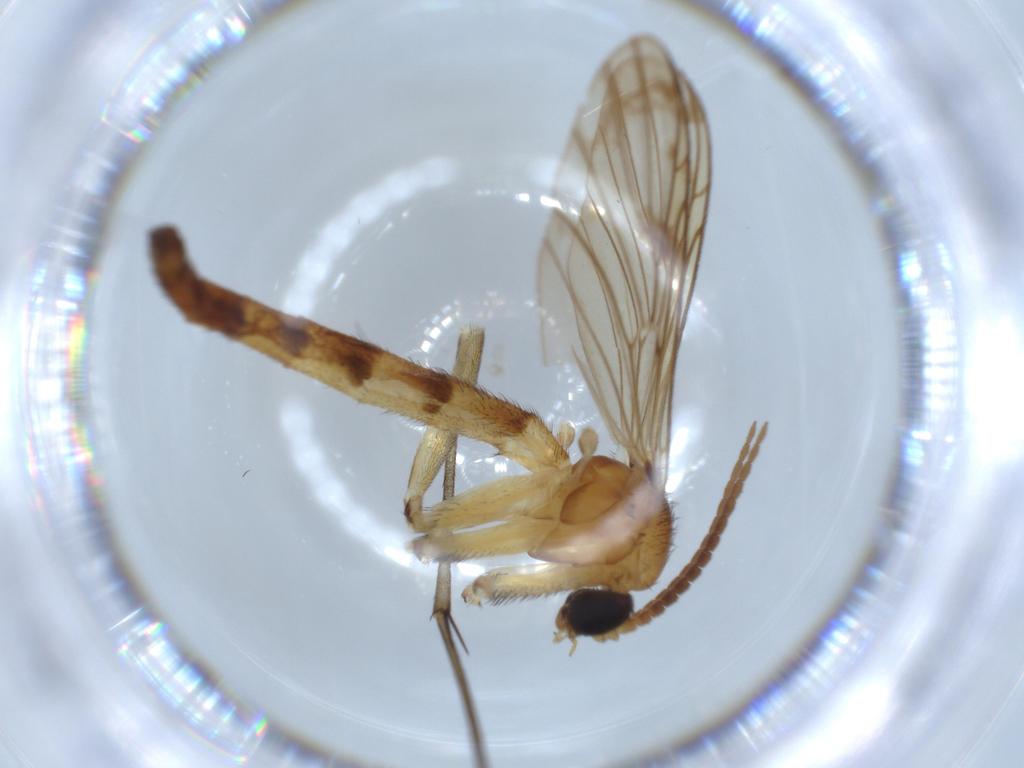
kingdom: Animalia
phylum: Arthropoda
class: Insecta
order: Diptera
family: Chironomidae
